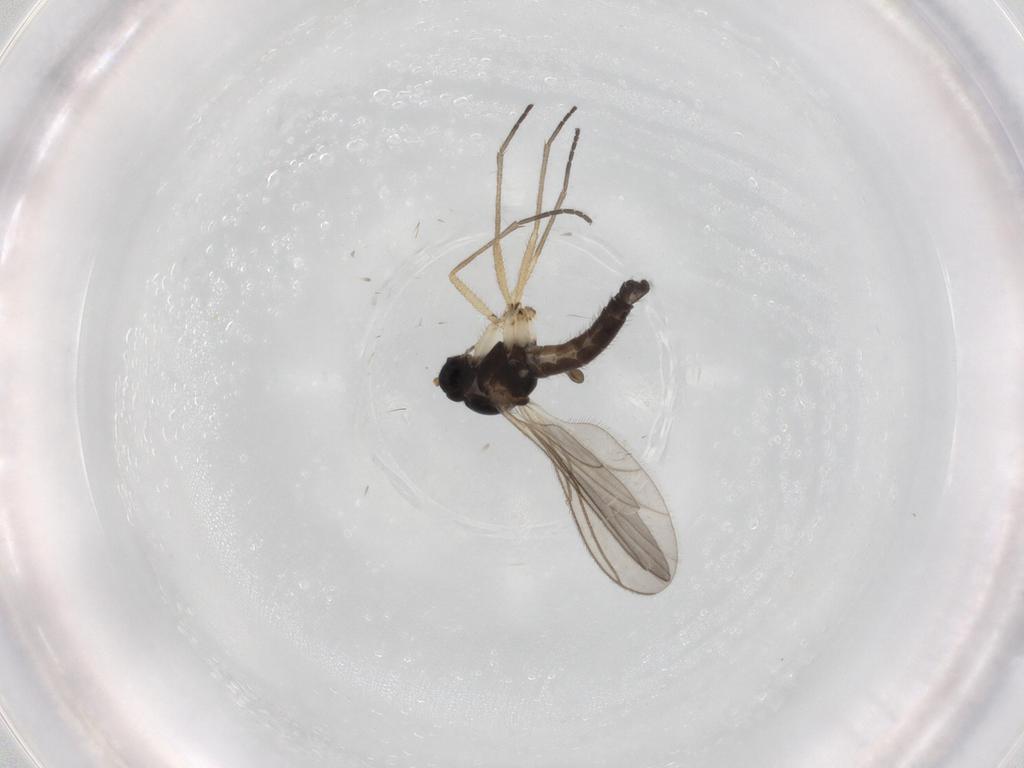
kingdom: Animalia
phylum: Arthropoda
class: Insecta
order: Diptera
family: Sciaridae
